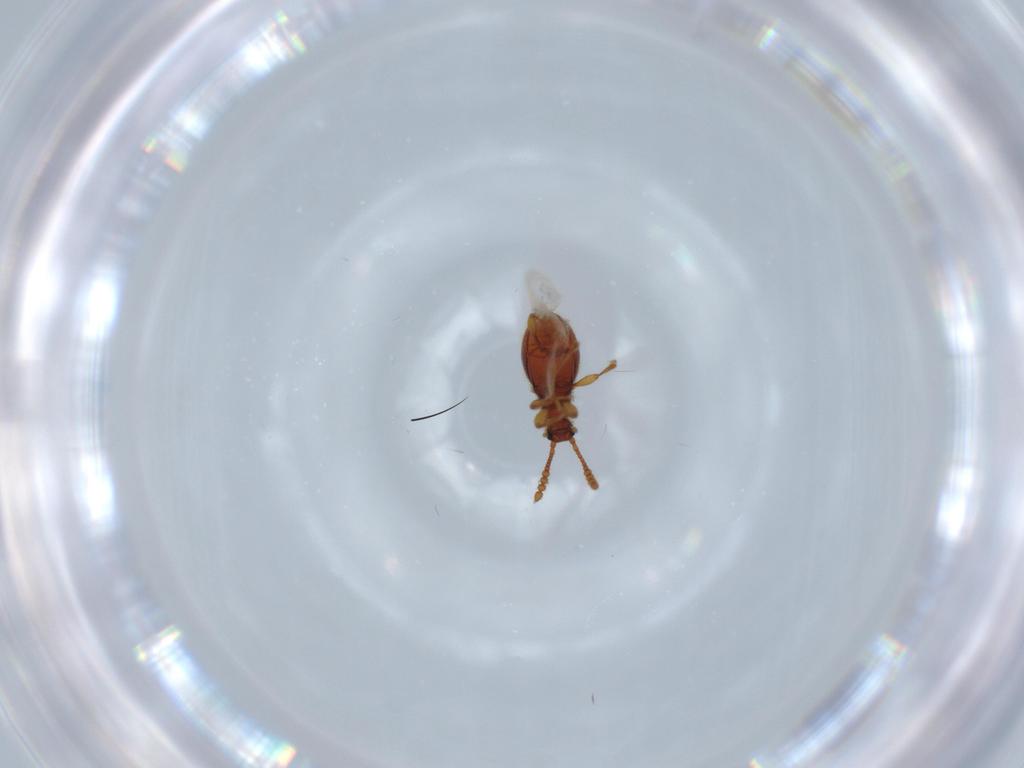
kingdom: Animalia
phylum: Arthropoda
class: Insecta
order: Coleoptera
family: Staphylinidae
